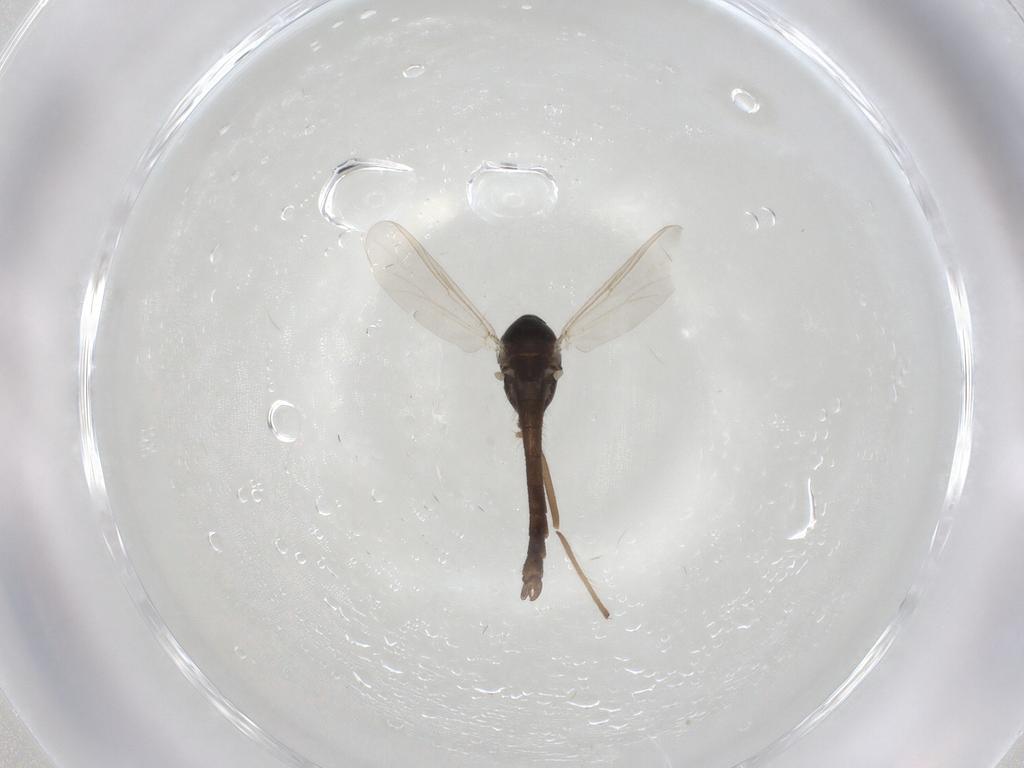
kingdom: Animalia
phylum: Arthropoda
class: Insecta
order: Diptera
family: Chironomidae
